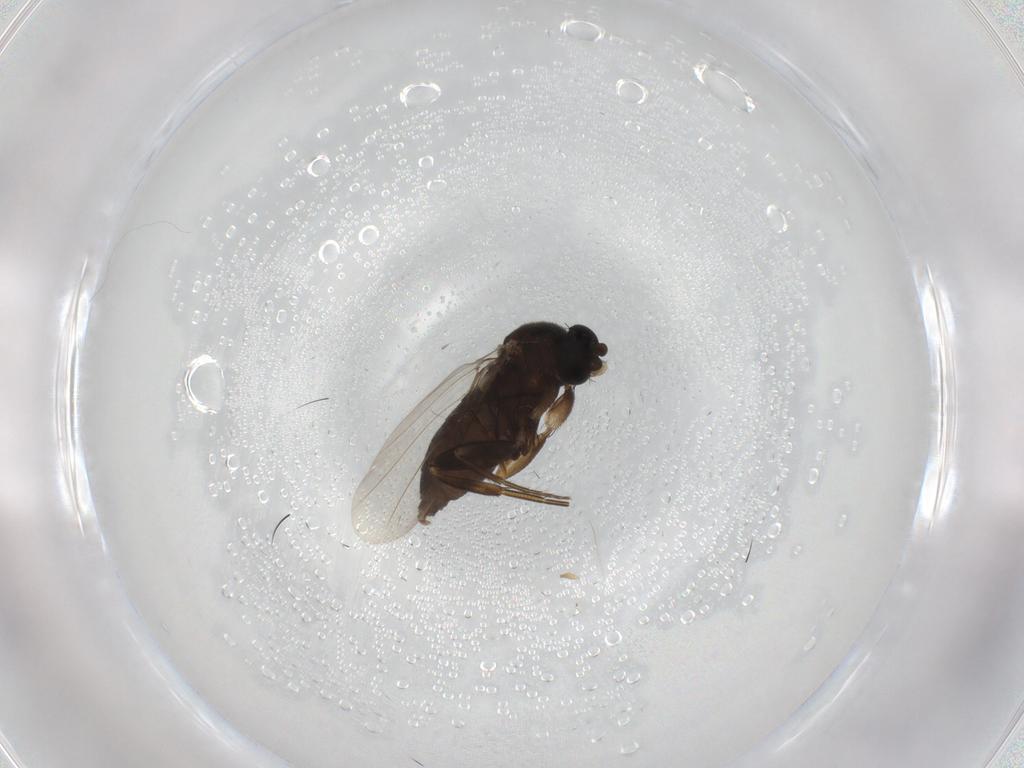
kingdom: Animalia
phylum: Arthropoda
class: Insecta
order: Diptera
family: Phoridae
